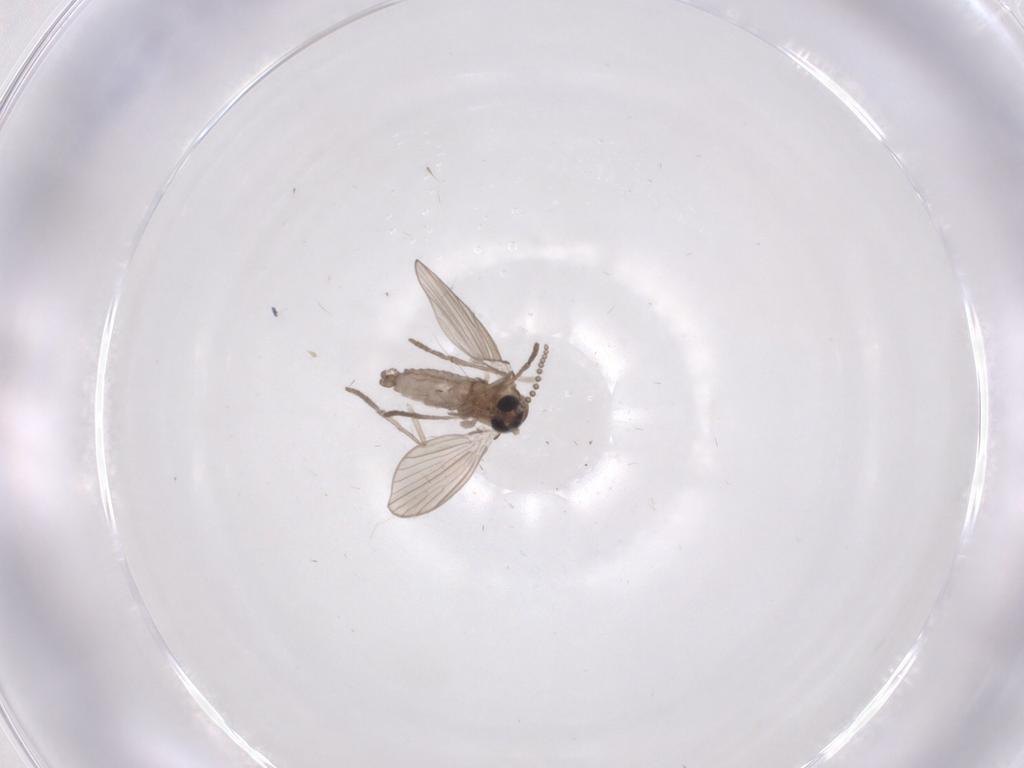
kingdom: Animalia
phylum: Arthropoda
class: Insecta
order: Diptera
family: Psychodidae
